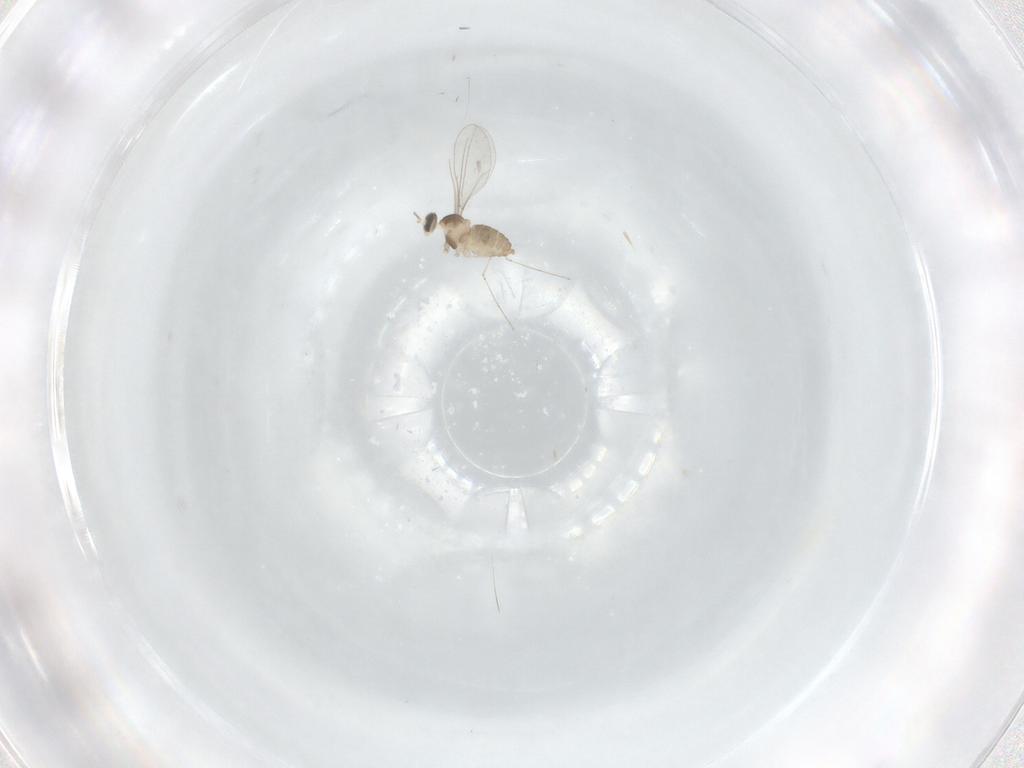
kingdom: Animalia
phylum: Arthropoda
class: Insecta
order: Diptera
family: Cecidomyiidae
